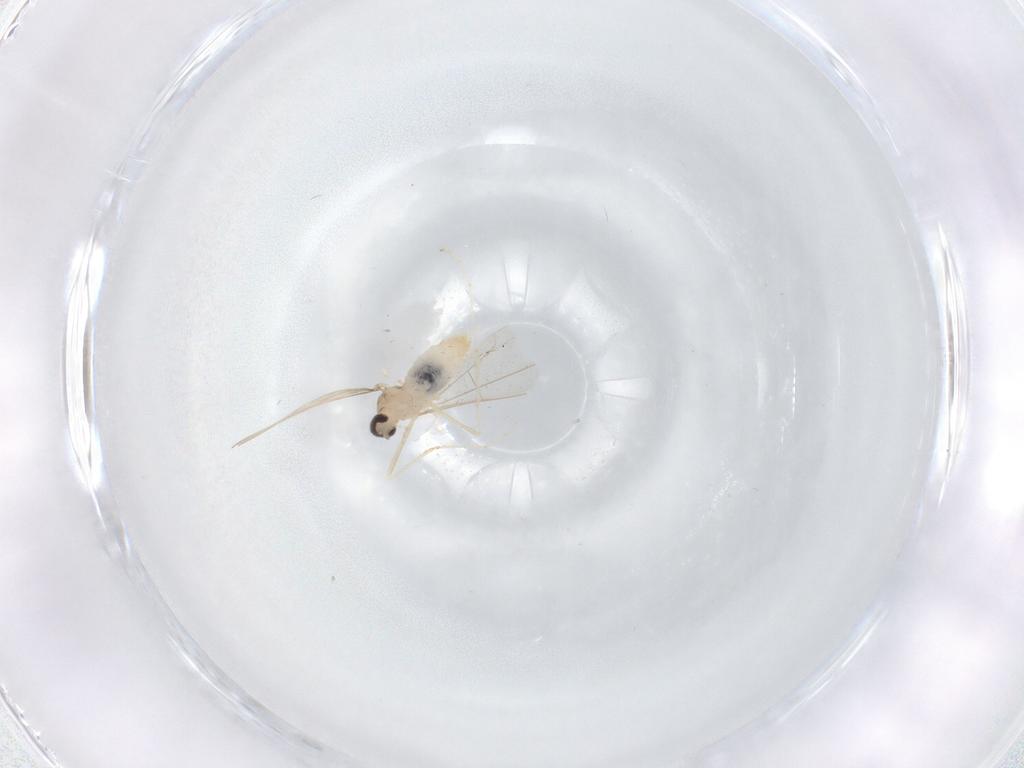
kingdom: Animalia
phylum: Arthropoda
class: Insecta
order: Diptera
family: Cecidomyiidae
